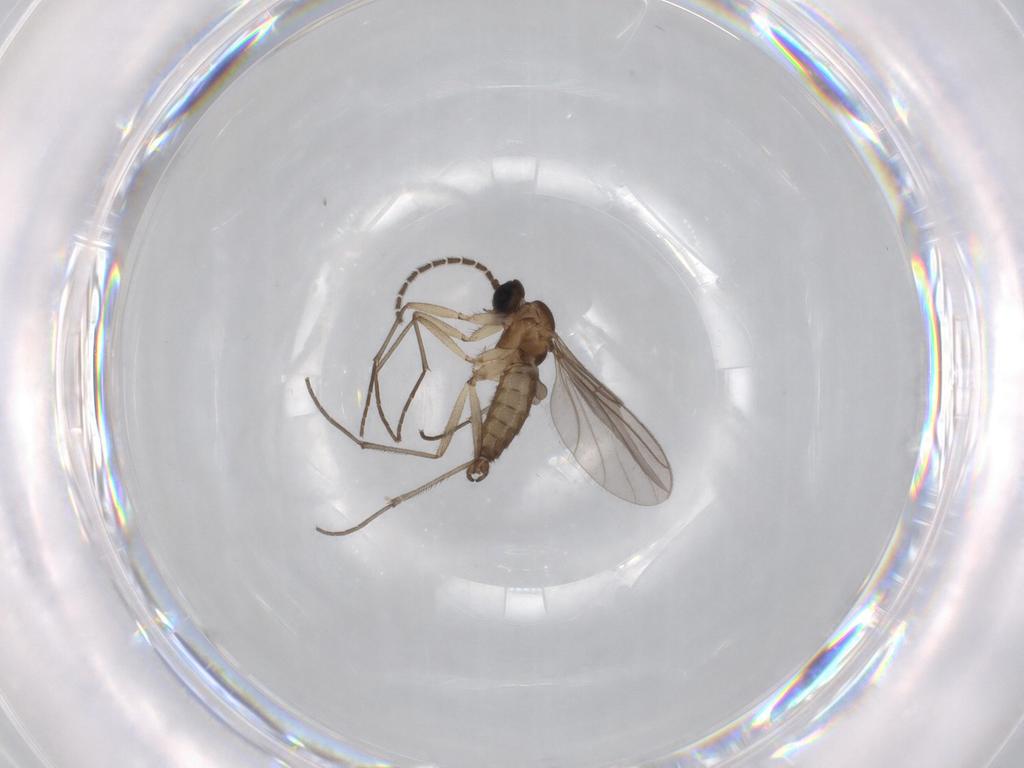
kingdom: Animalia
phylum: Arthropoda
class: Insecta
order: Diptera
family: Sciaridae
